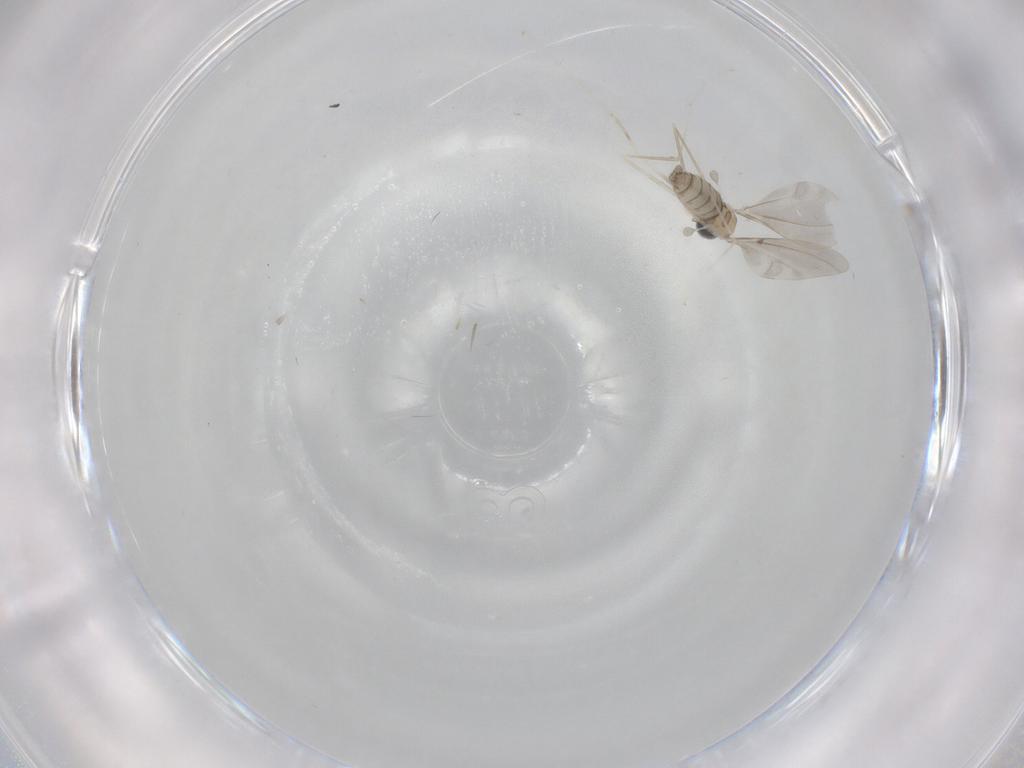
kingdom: Animalia
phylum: Arthropoda
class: Insecta
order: Diptera
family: Cecidomyiidae
